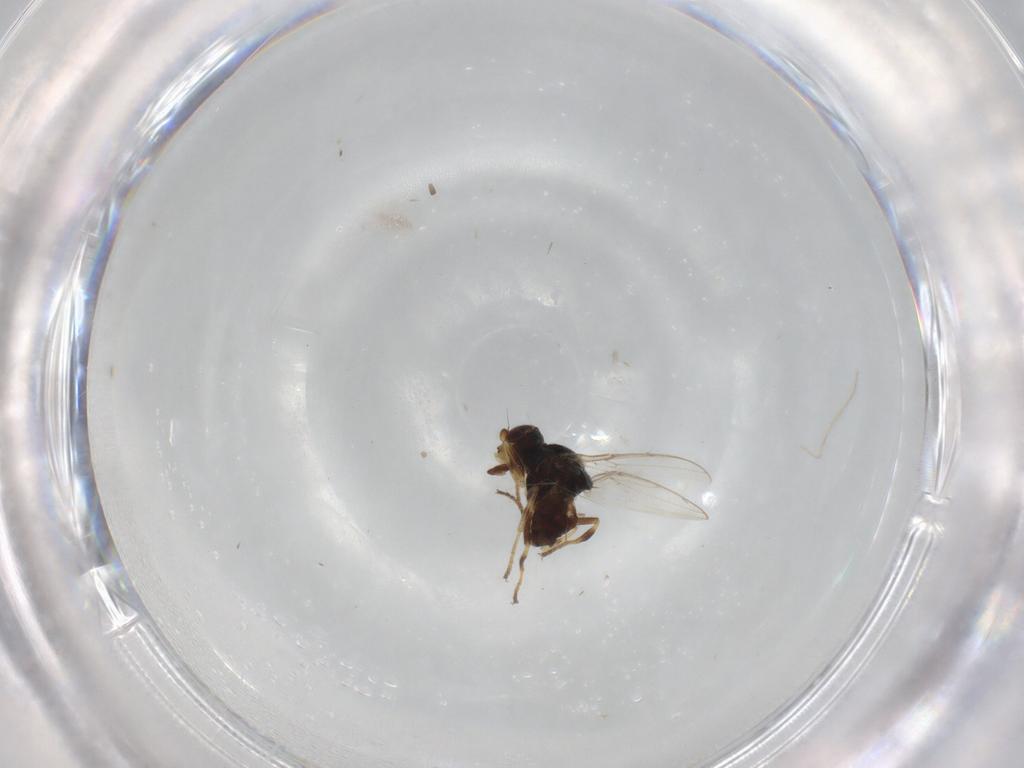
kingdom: Animalia
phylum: Arthropoda
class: Insecta
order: Diptera
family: Chloropidae
